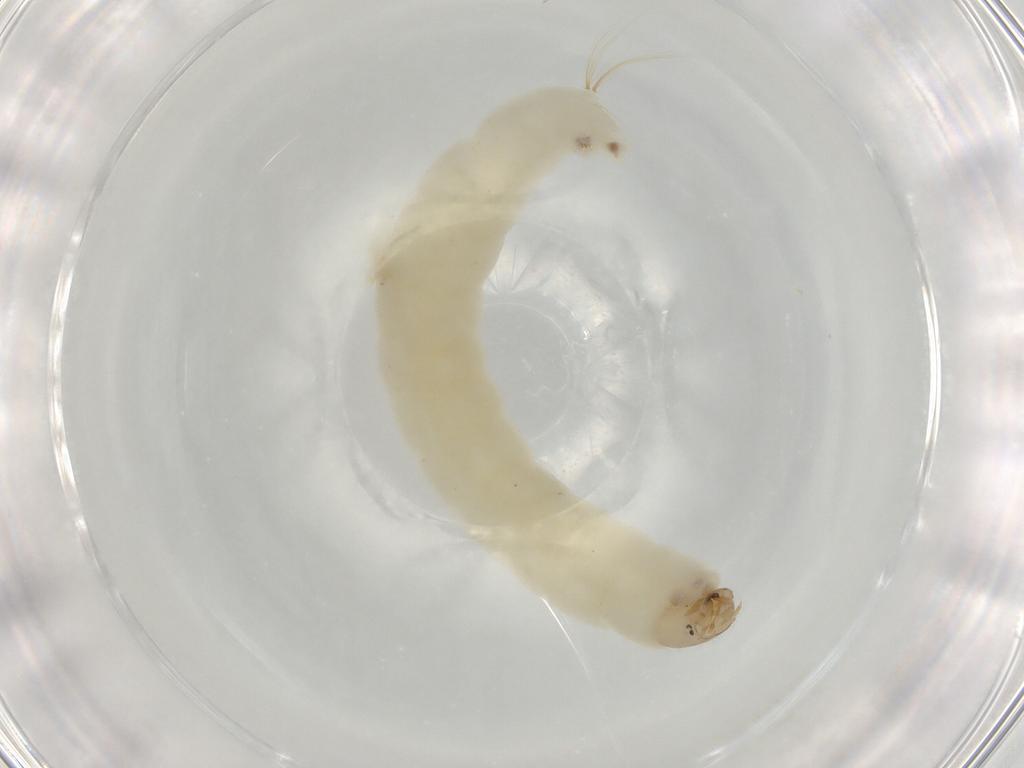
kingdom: Animalia
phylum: Arthropoda
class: Insecta
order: Diptera
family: Chironomidae
